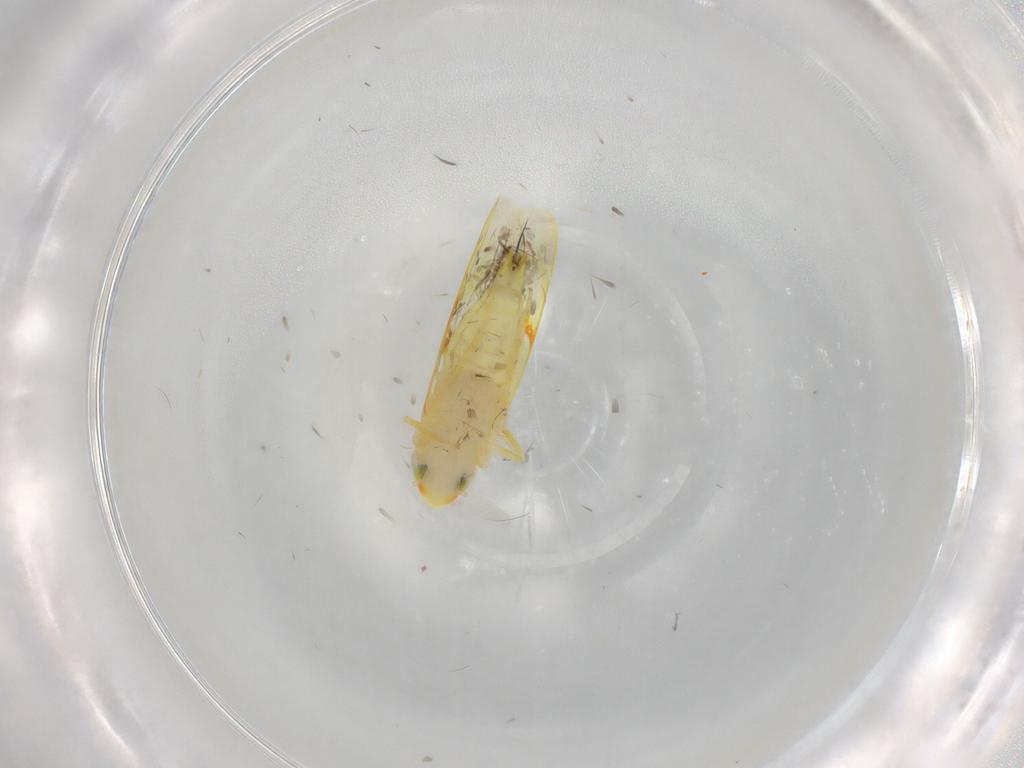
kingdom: Animalia
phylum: Arthropoda
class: Insecta
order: Hemiptera
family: Cicadellidae
